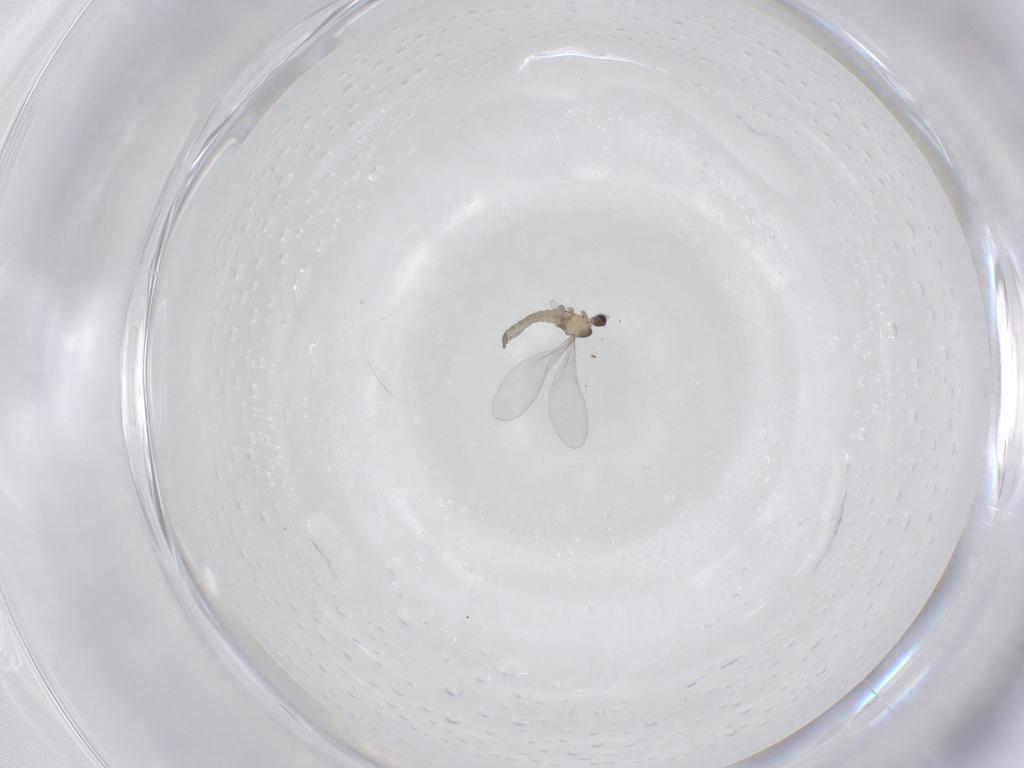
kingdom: Animalia
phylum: Arthropoda
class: Insecta
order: Diptera
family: Cecidomyiidae
